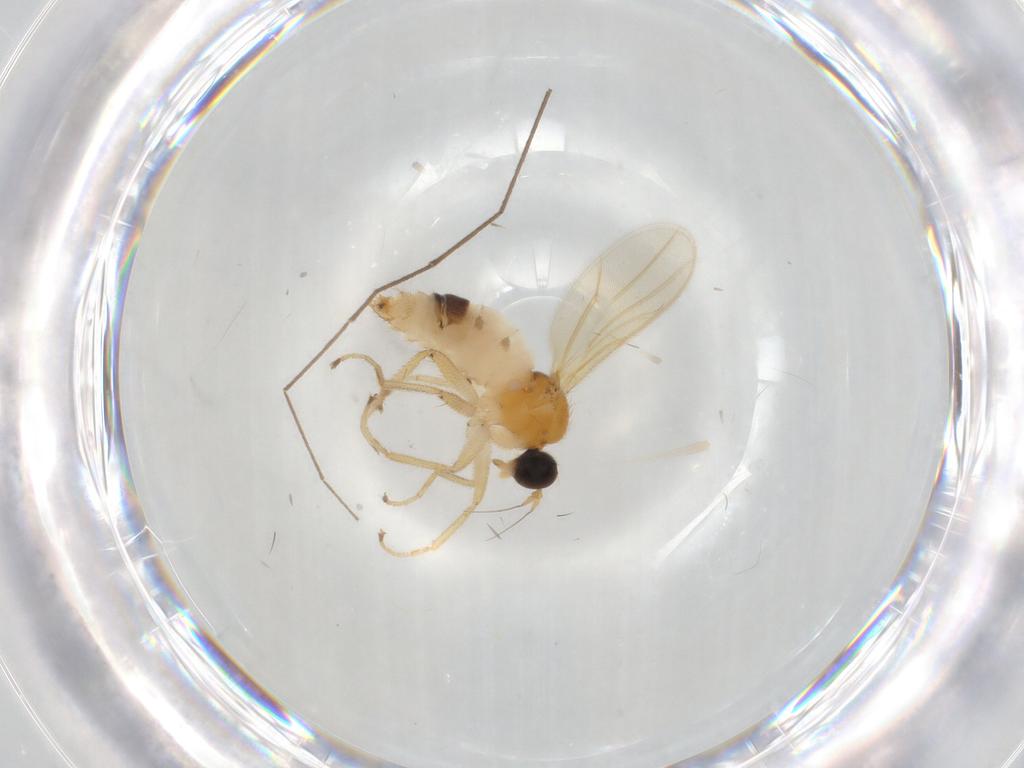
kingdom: Animalia
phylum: Arthropoda
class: Insecta
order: Diptera
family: Hybotidae
